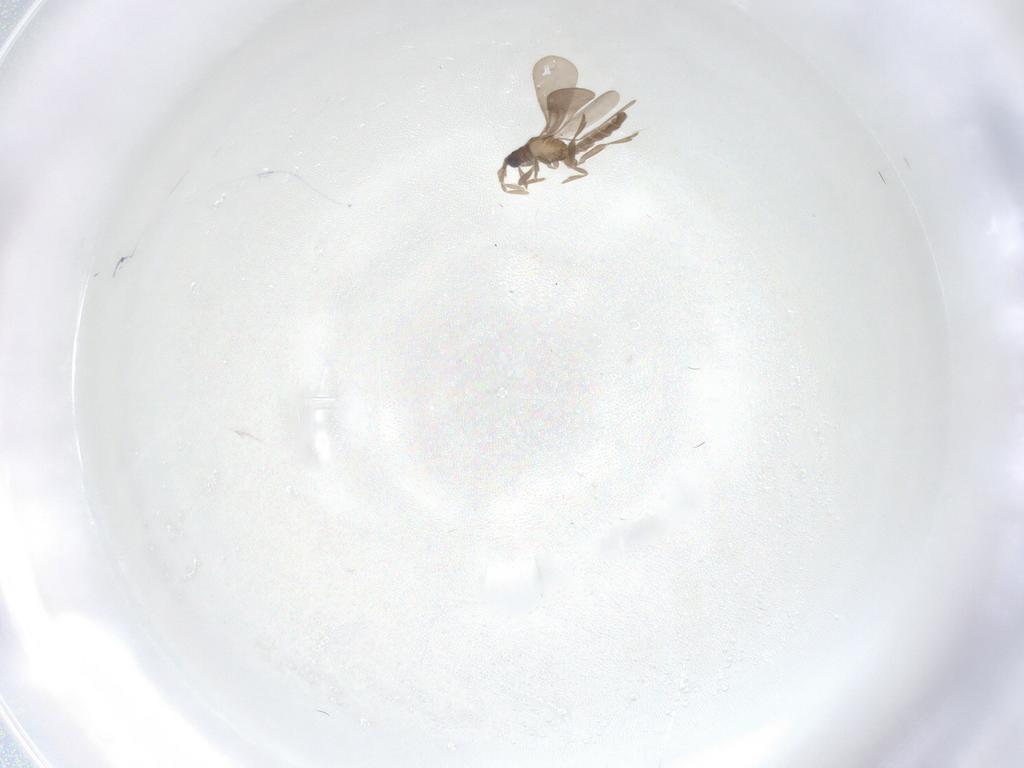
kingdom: Animalia
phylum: Arthropoda
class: Insecta
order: Hemiptera
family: Enicocephalidae
